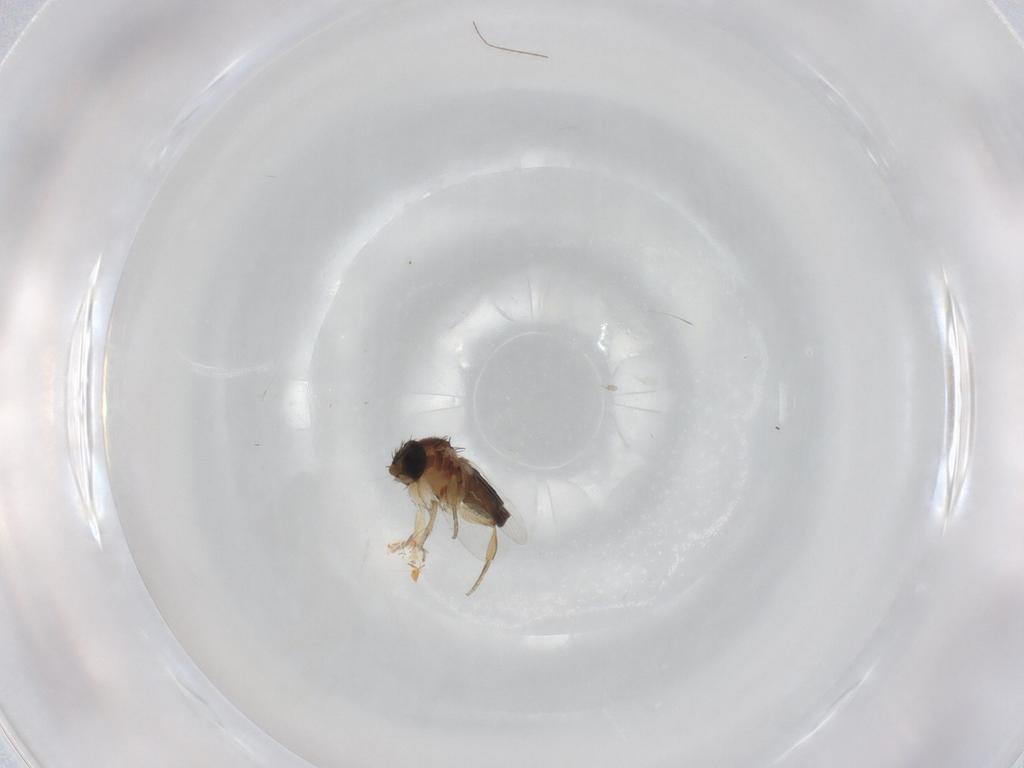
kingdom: Animalia
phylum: Arthropoda
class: Insecta
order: Diptera
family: Phoridae
